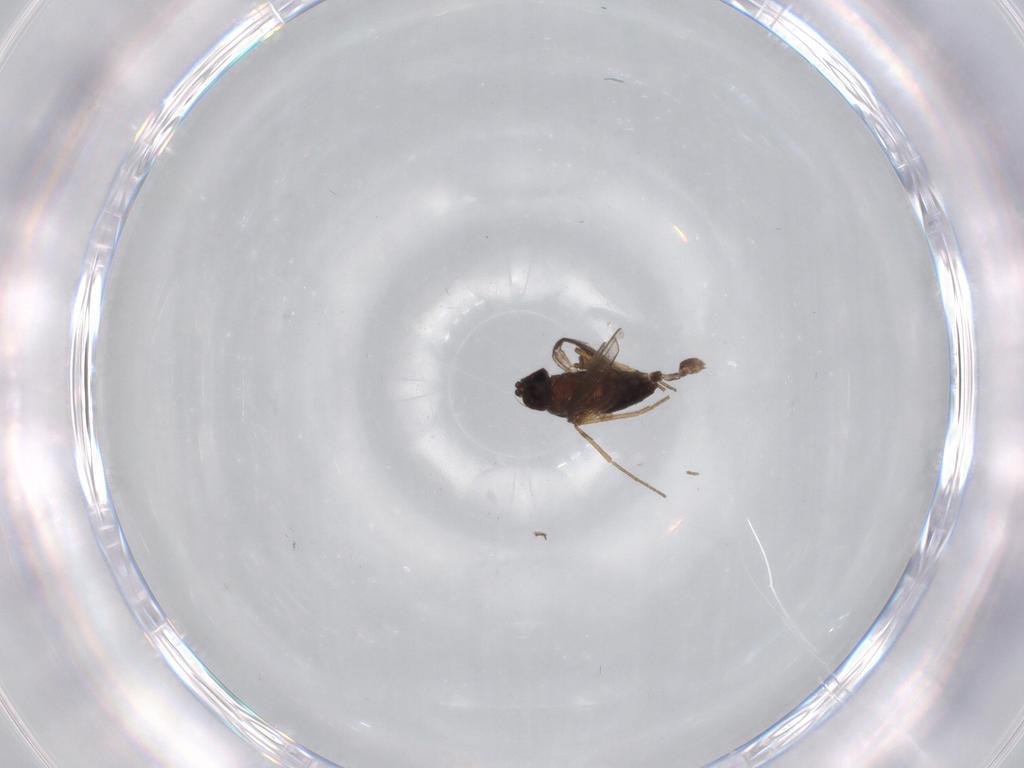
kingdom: Animalia
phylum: Arthropoda
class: Insecta
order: Diptera
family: Dolichopodidae
